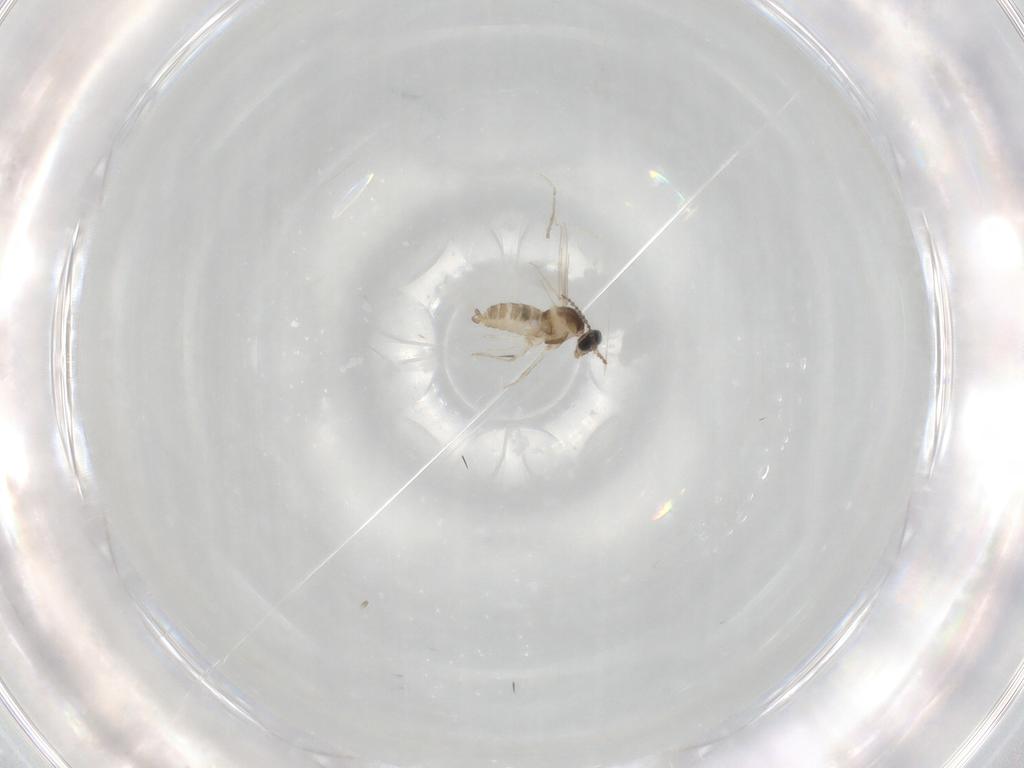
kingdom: Animalia
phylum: Arthropoda
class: Insecta
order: Diptera
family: Cecidomyiidae
